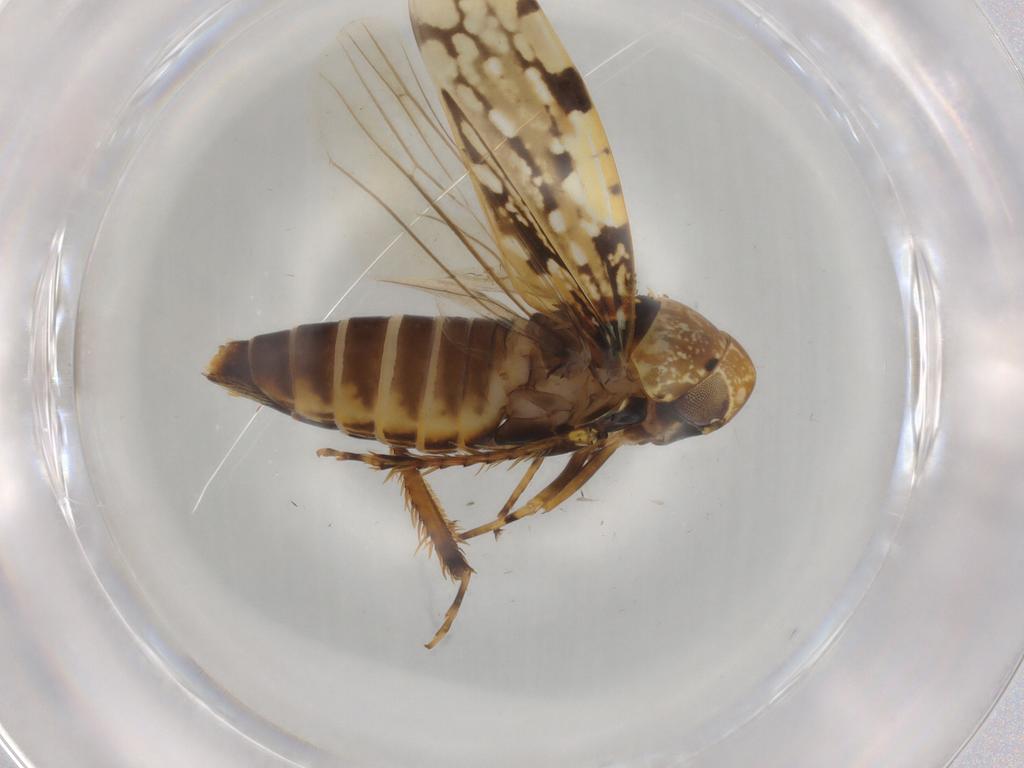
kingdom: Animalia
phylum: Arthropoda
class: Insecta
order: Hemiptera
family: Cicadellidae
